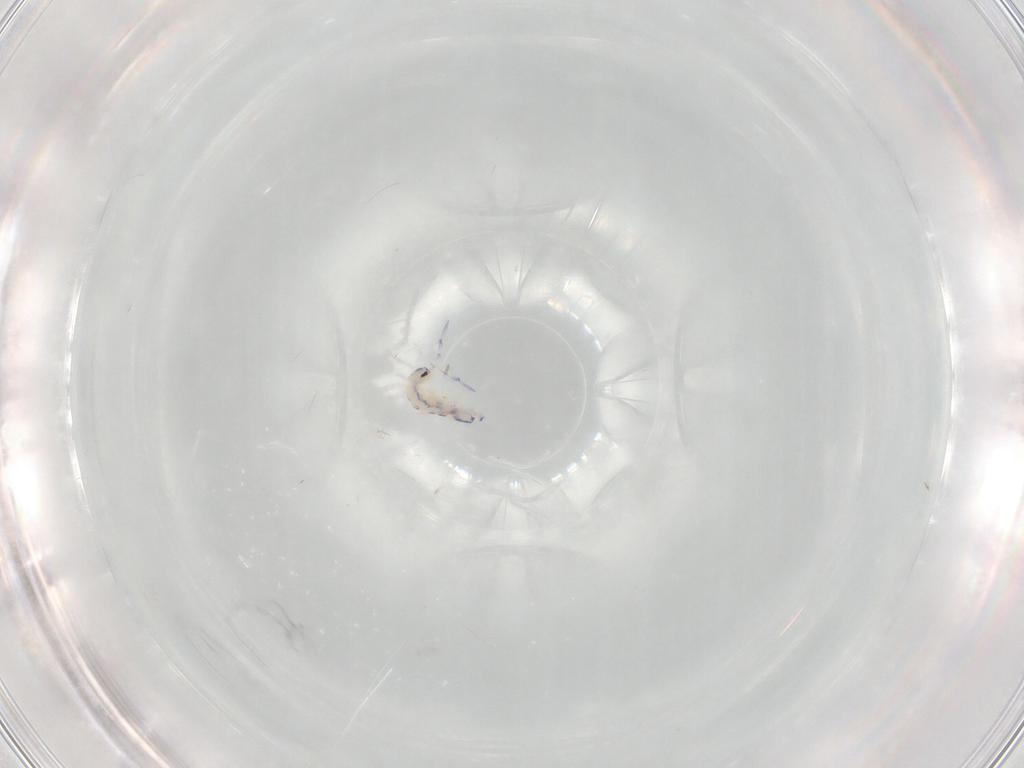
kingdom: Animalia
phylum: Arthropoda
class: Collembola
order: Entomobryomorpha
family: Entomobryidae
